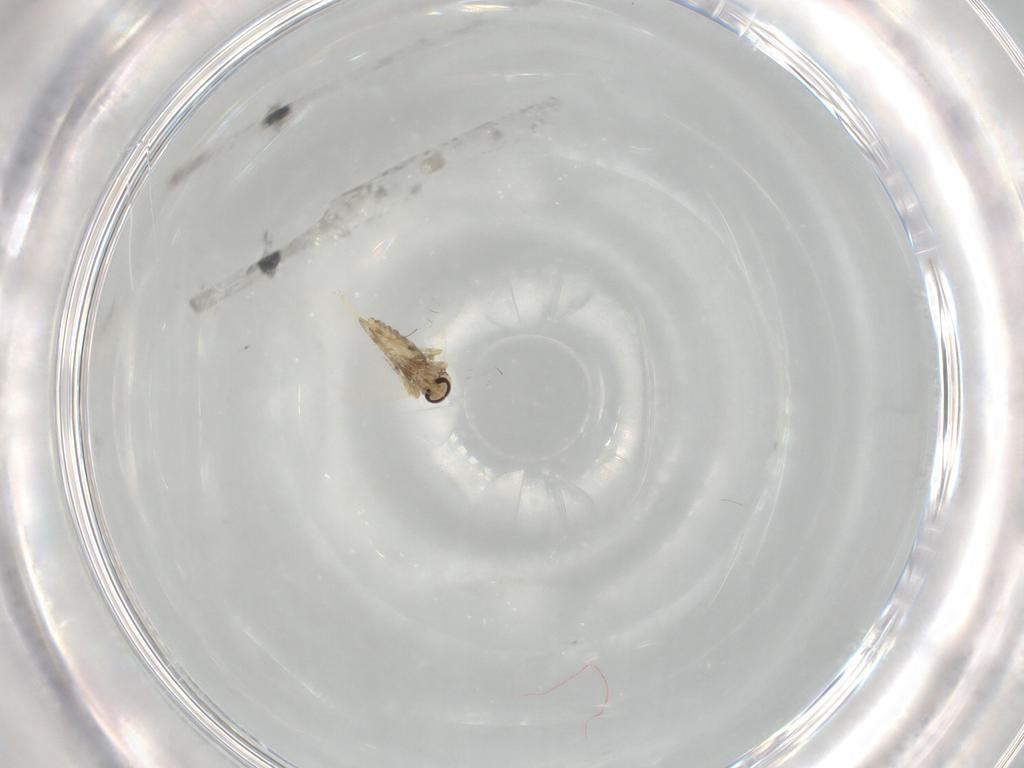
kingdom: Animalia
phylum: Arthropoda
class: Insecta
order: Diptera
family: Ceratopogonidae
